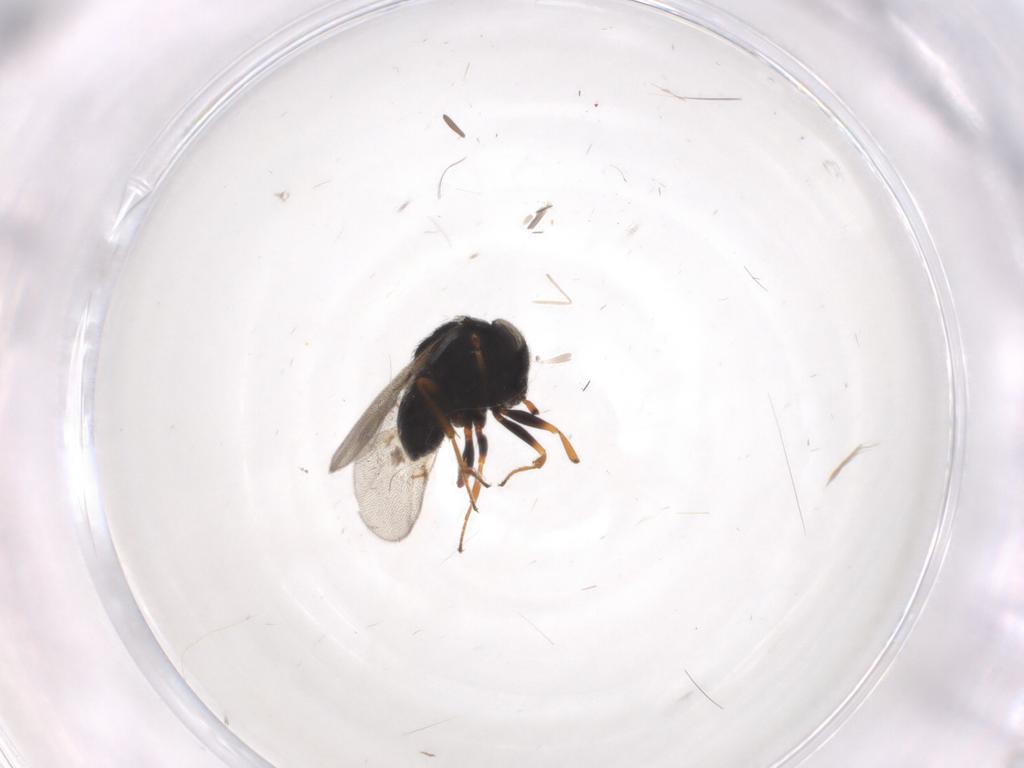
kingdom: Animalia
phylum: Arthropoda
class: Insecta
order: Hymenoptera
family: Scelionidae
